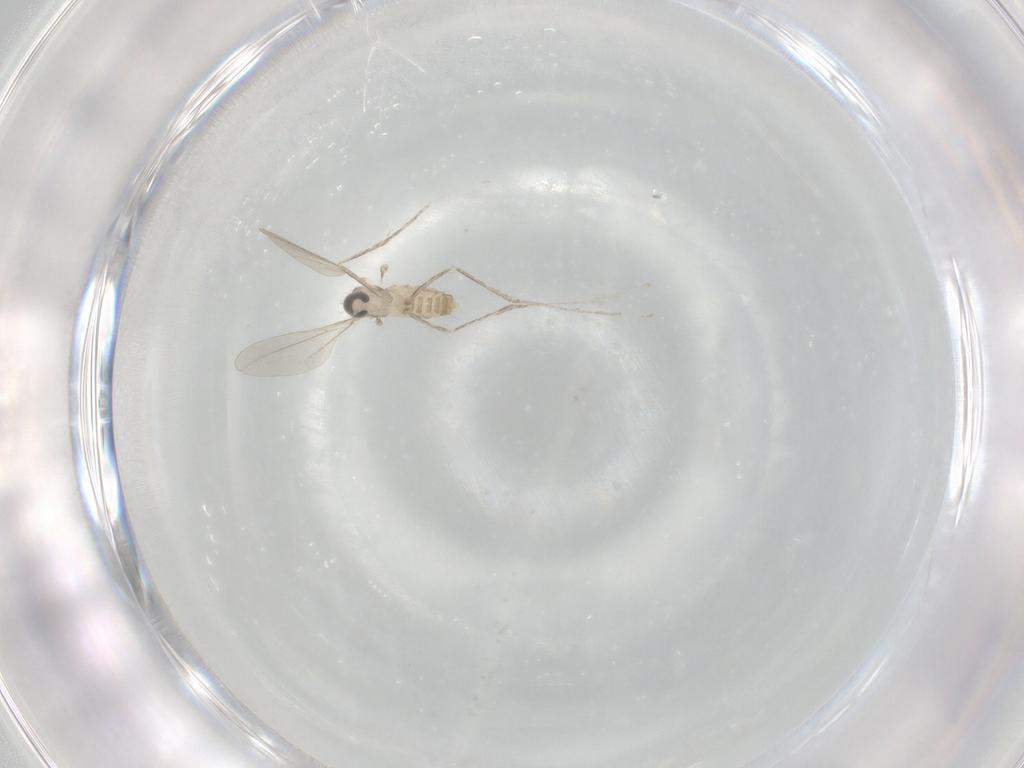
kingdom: Animalia
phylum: Arthropoda
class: Insecta
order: Diptera
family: Cecidomyiidae
